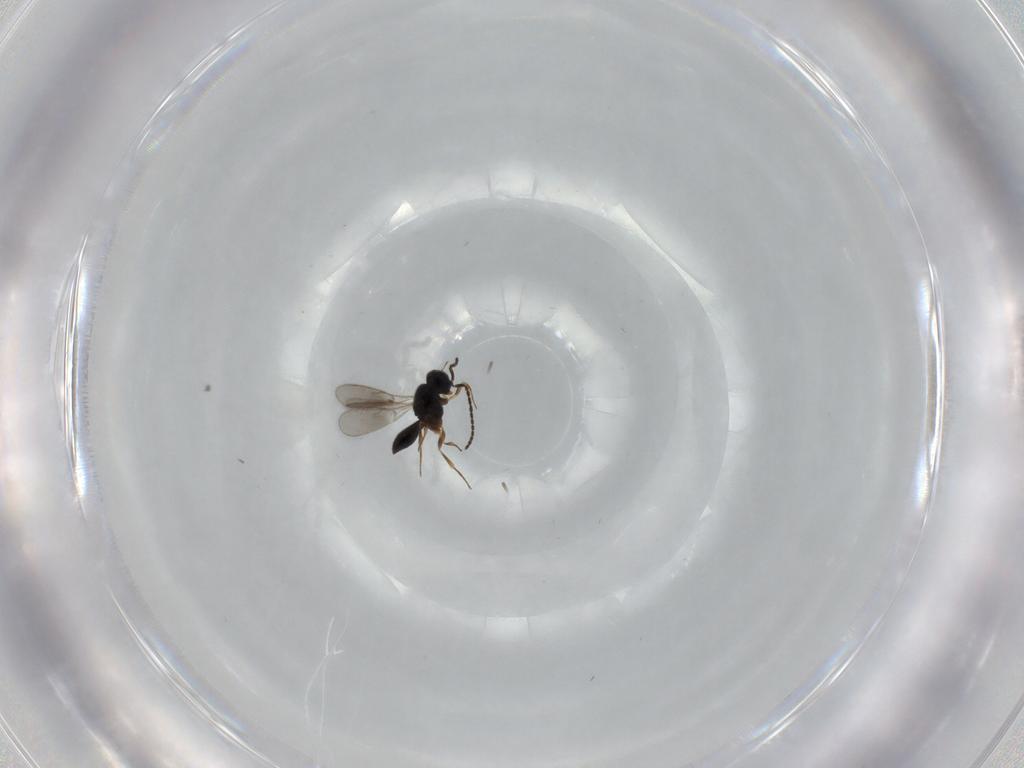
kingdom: Animalia
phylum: Arthropoda
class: Insecta
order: Hymenoptera
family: Scelionidae
